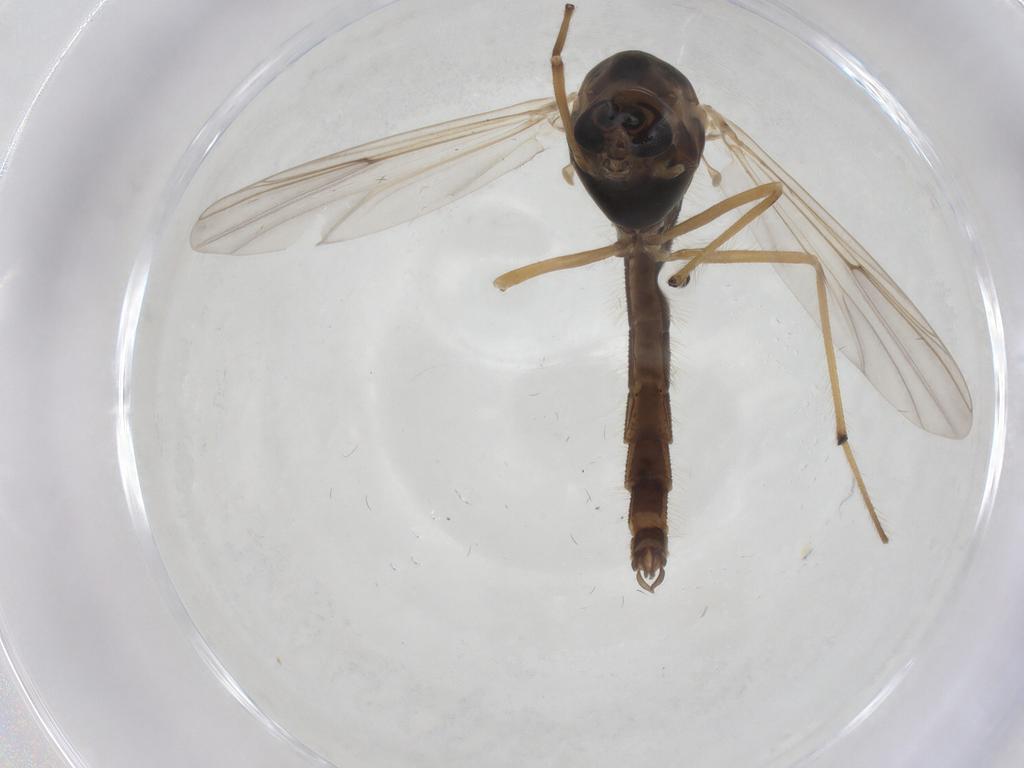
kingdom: Animalia
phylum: Arthropoda
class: Insecta
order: Diptera
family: Chironomidae
